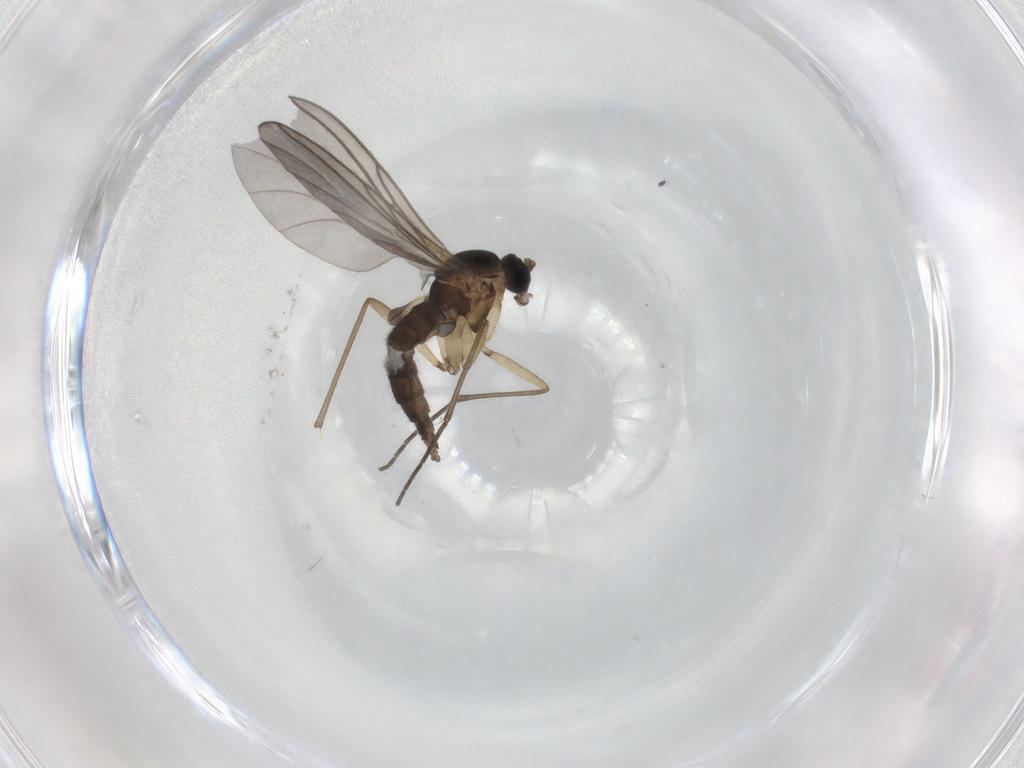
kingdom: Animalia
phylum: Arthropoda
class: Insecta
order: Diptera
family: Sciaridae
